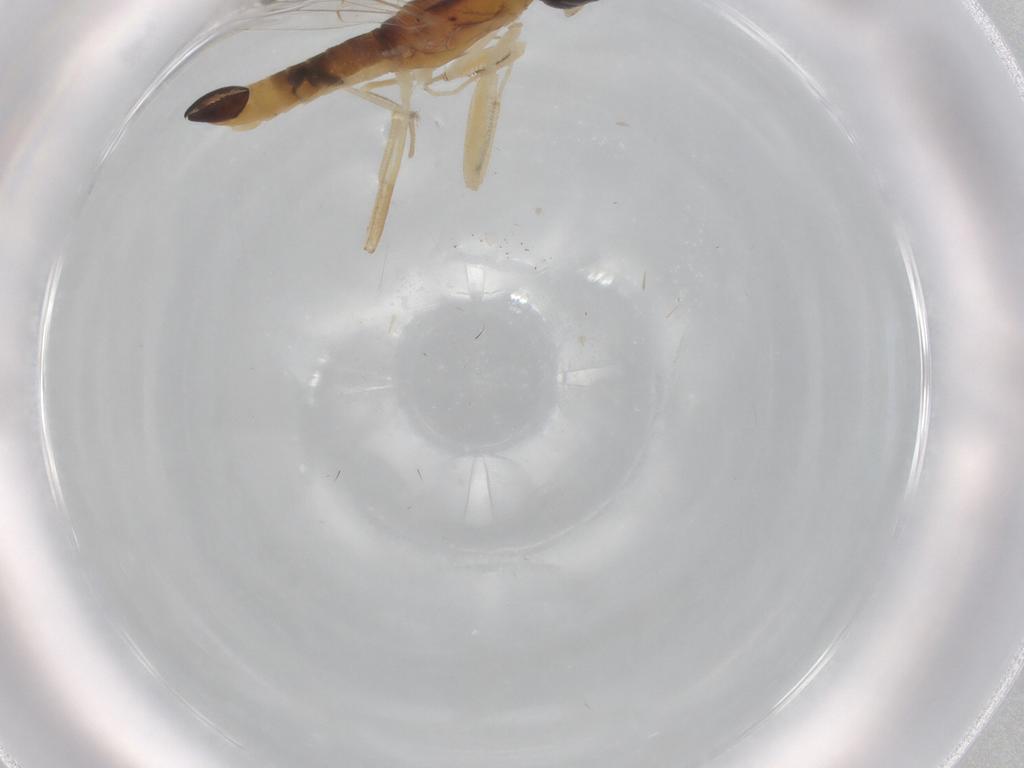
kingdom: Animalia
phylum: Arthropoda
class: Insecta
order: Diptera
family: Empididae
